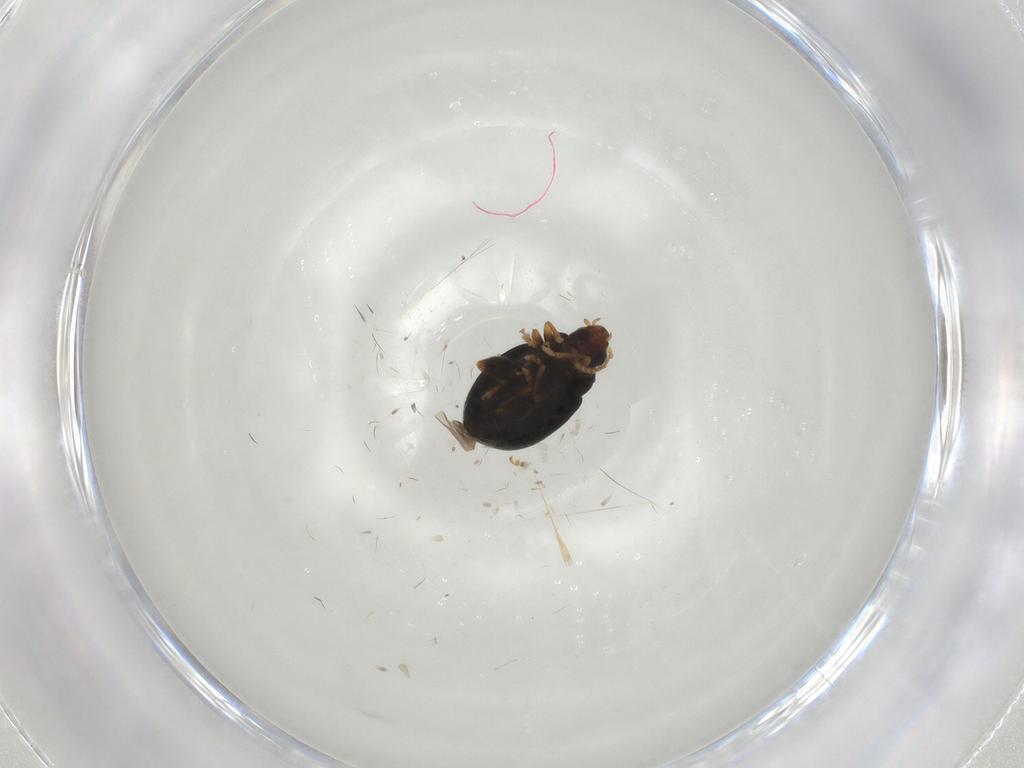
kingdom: Animalia
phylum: Arthropoda
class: Insecta
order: Coleoptera
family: Chrysomelidae
